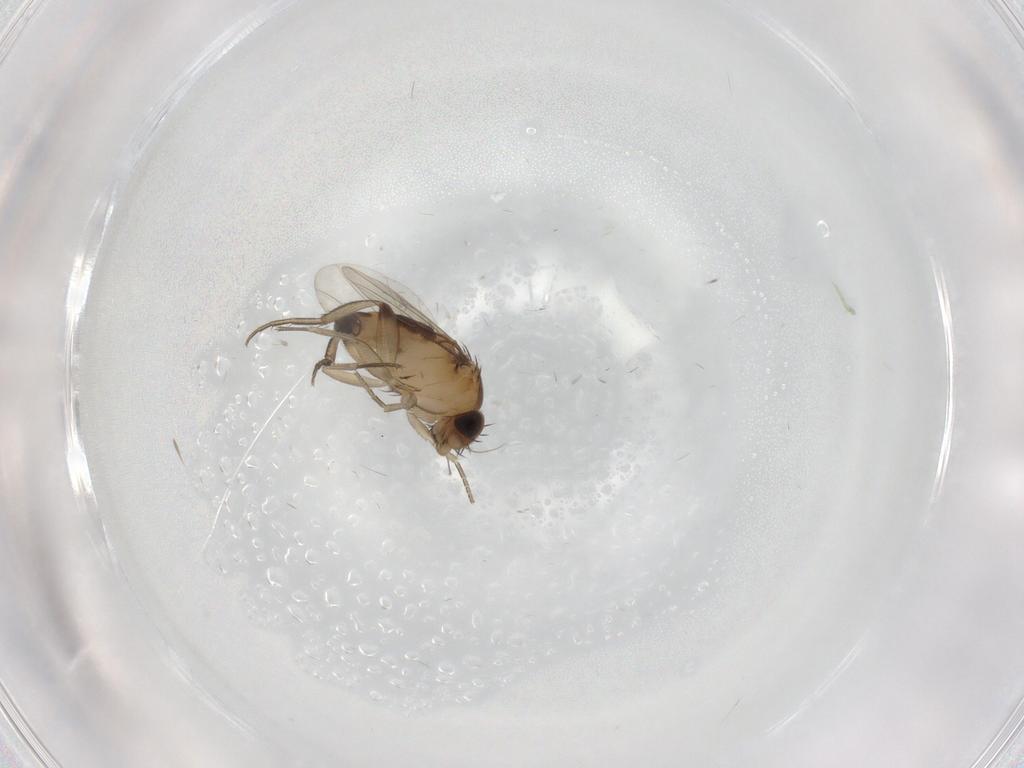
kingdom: Animalia
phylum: Arthropoda
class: Insecta
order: Diptera
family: Phoridae
